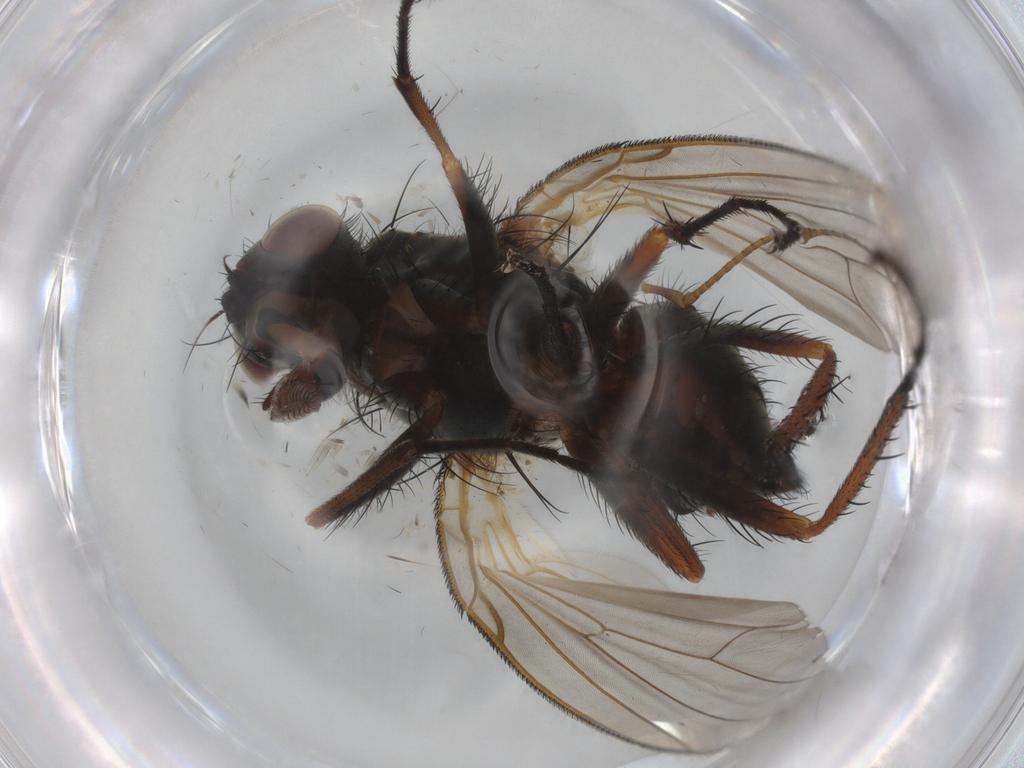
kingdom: Animalia
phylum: Arthropoda
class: Insecta
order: Diptera
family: Anthomyiidae
